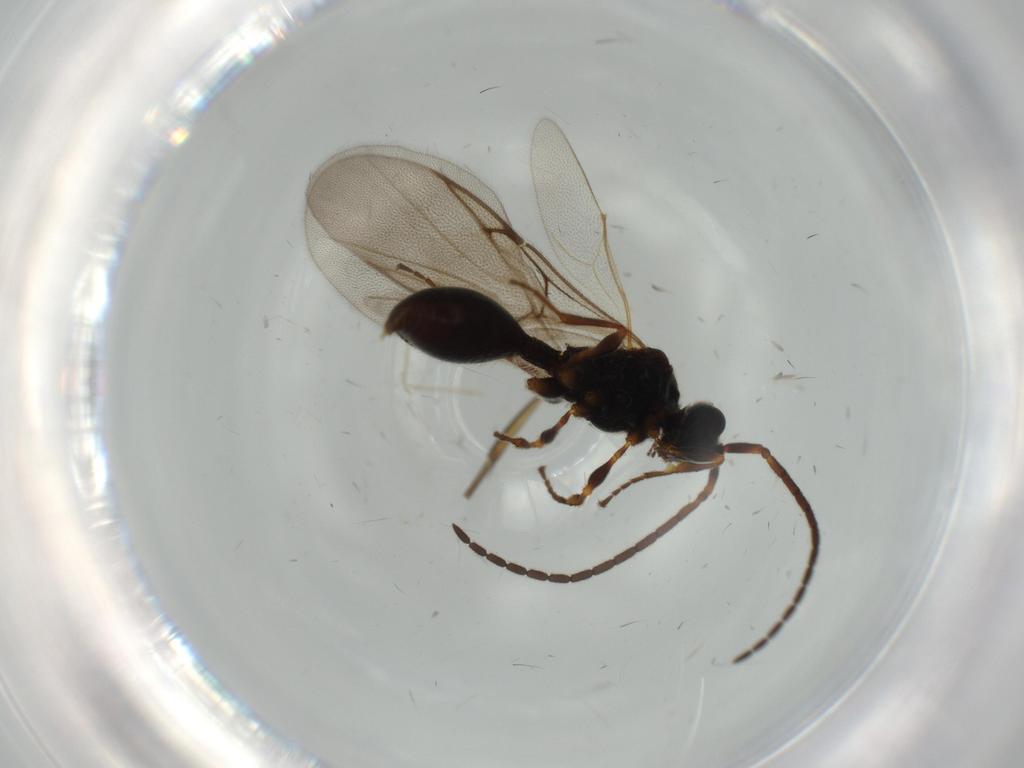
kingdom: Animalia
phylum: Arthropoda
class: Insecta
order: Hymenoptera
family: Diapriidae
